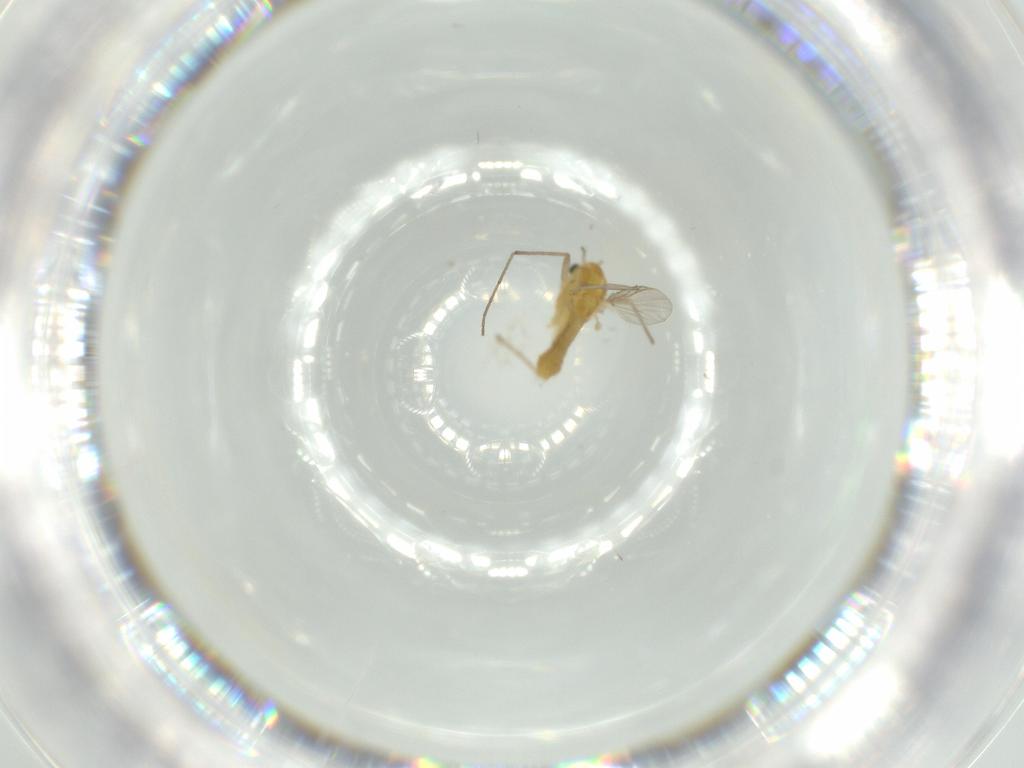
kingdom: Animalia
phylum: Arthropoda
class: Insecta
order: Diptera
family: Chironomidae
